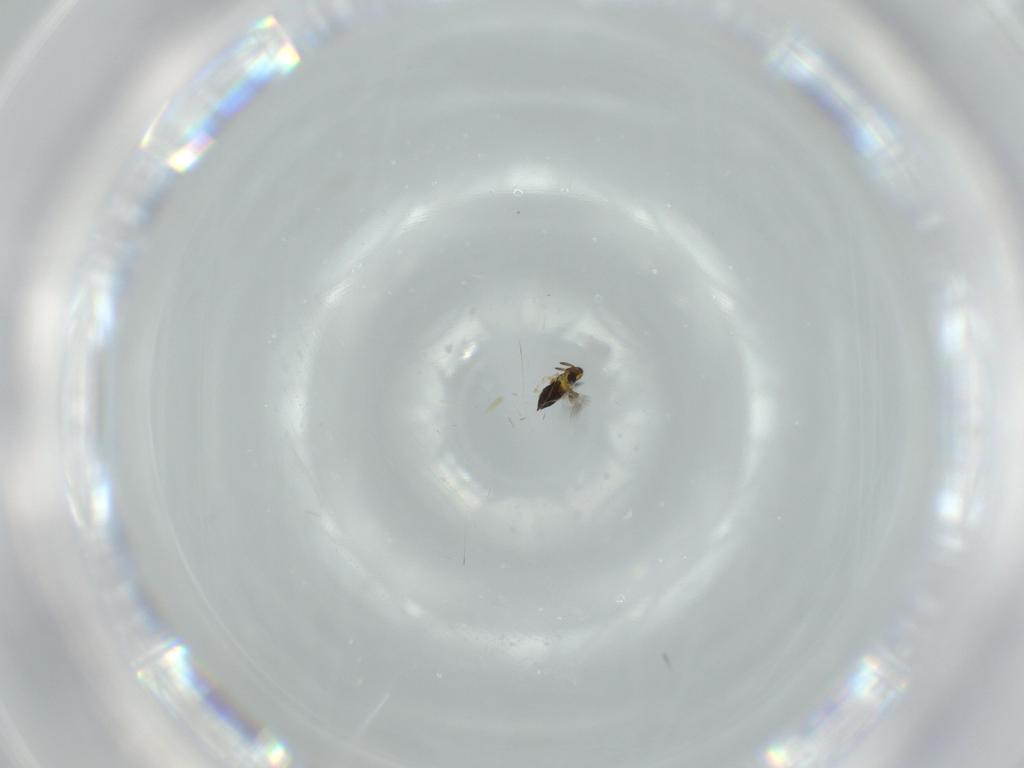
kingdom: Animalia
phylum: Arthropoda
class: Insecta
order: Hymenoptera
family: Signiphoridae
